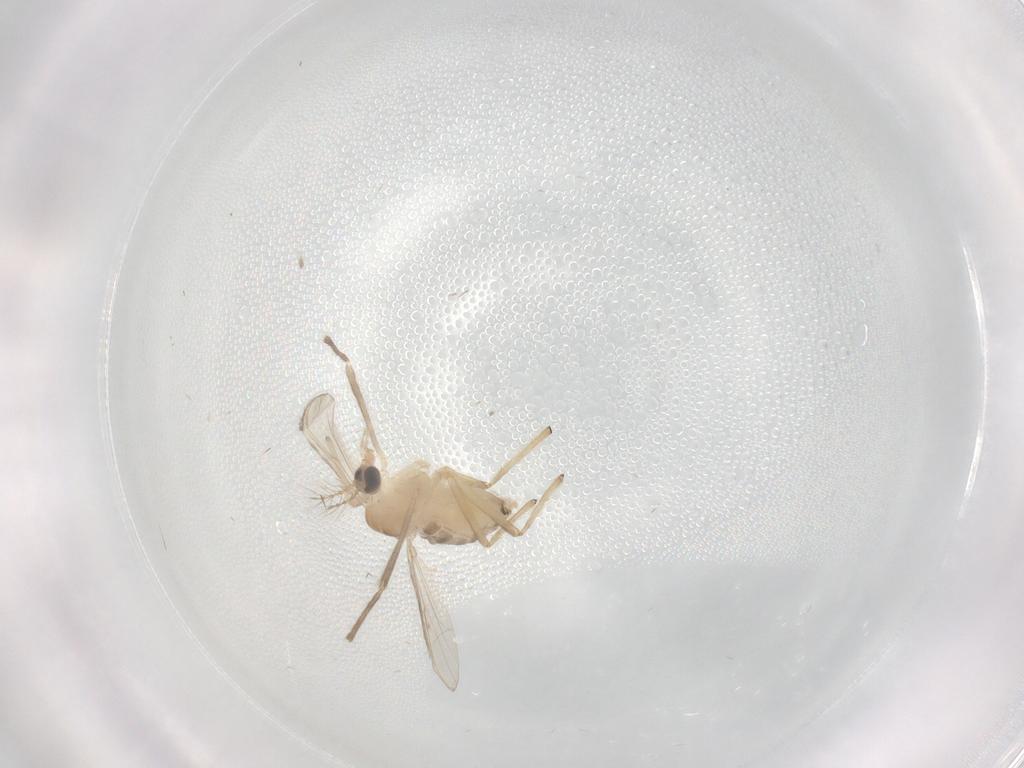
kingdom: Animalia
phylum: Arthropoda
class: Insecta
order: Diptera
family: Chironomidae
